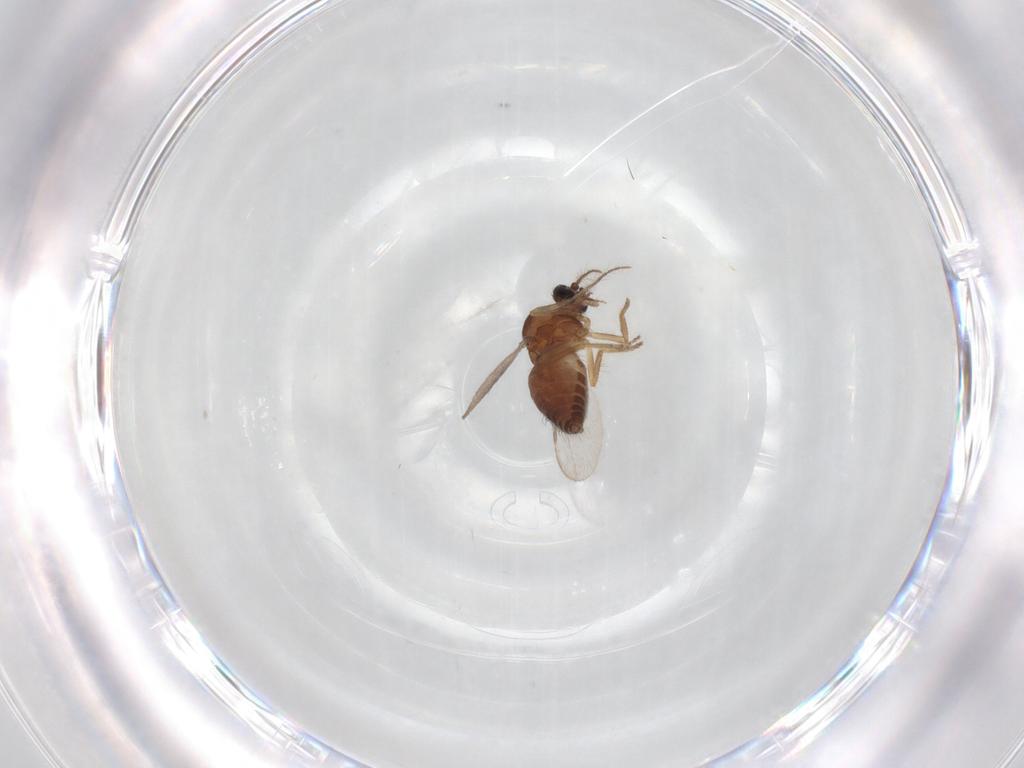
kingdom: Animalia
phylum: Arthropoda
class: Insecta
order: Diptera
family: Ceratopogonidae
